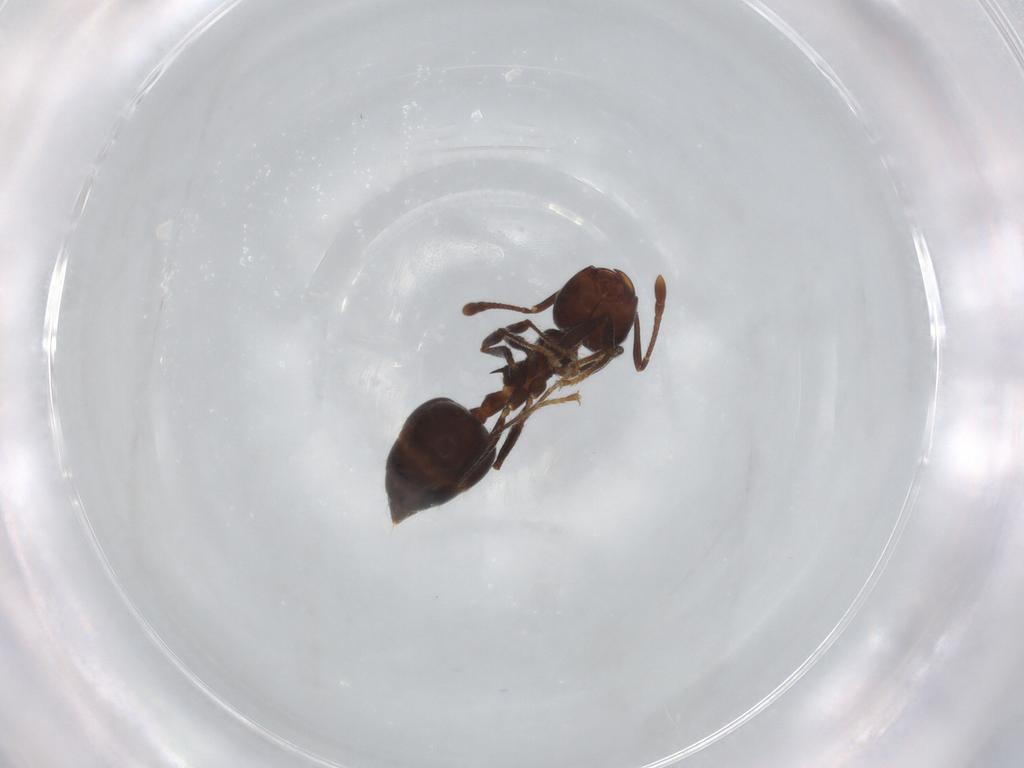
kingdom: Animalia
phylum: Arthropoda
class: Insecta
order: Hymenoptera
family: Formicidae
